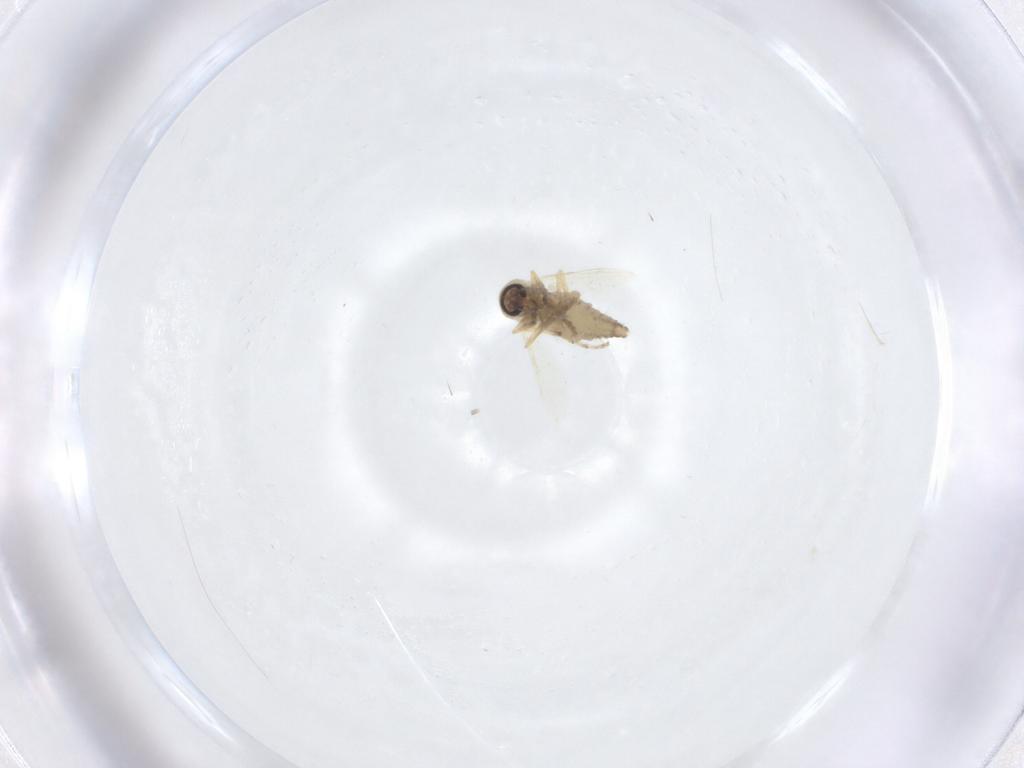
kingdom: Animalia
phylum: Arthropoda
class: Insecta
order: Diptera
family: Ceratopogonidae
